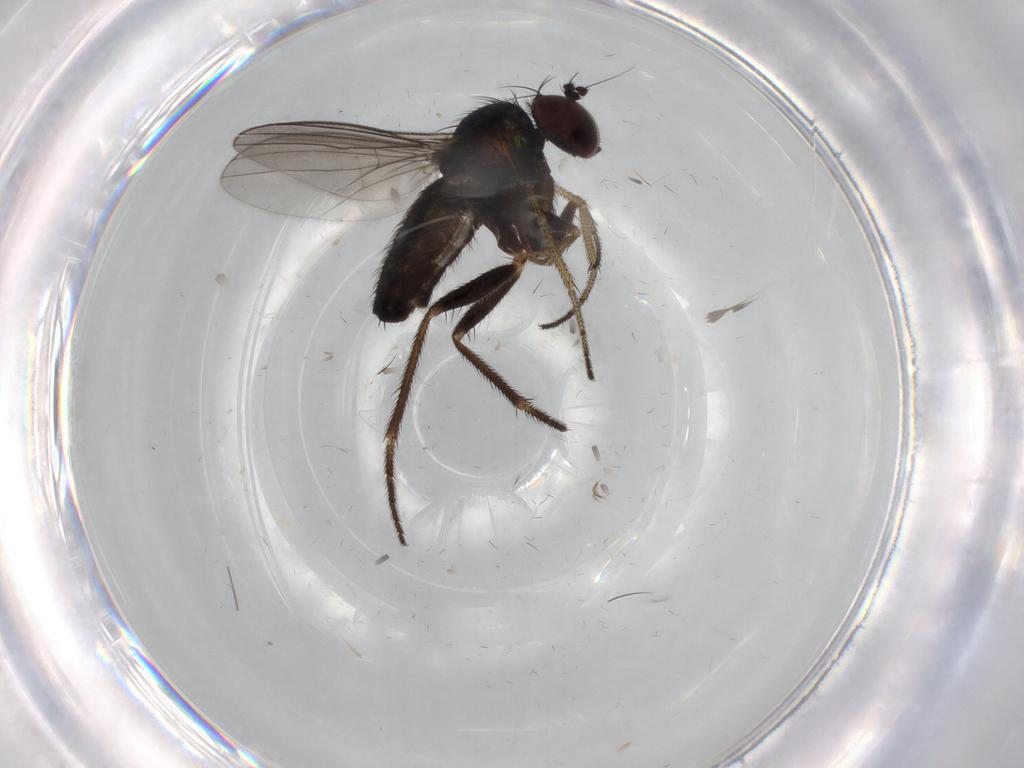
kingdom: Animalia
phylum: Arthropoda
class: Insecta
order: Diptera
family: Limoniidae
